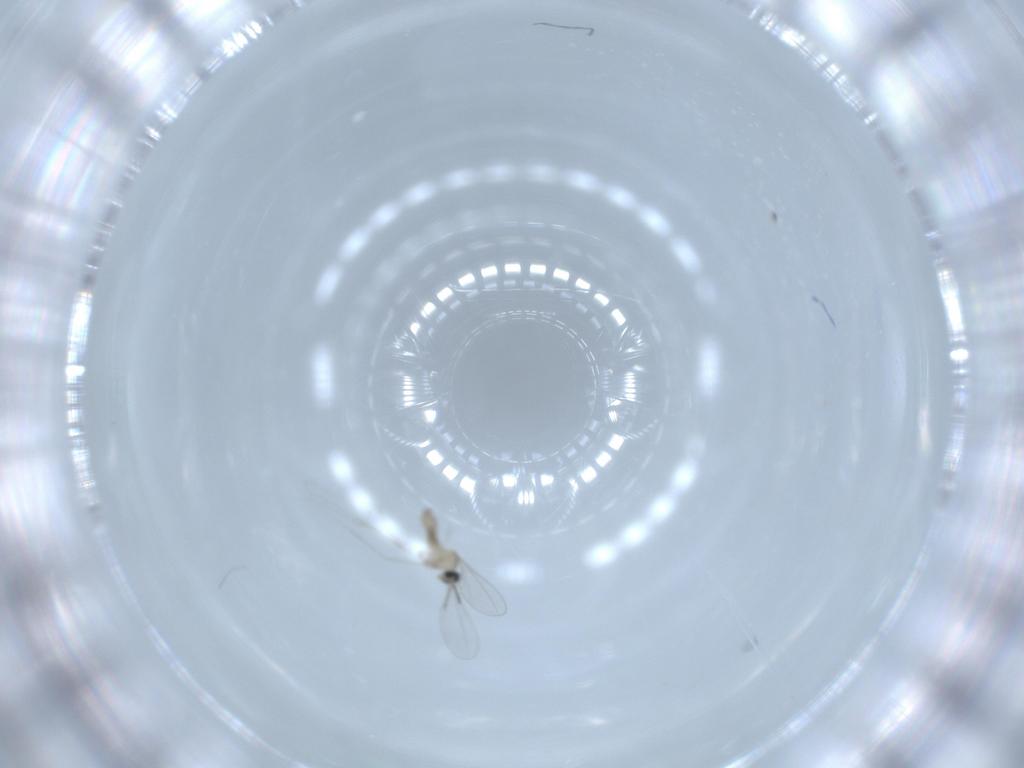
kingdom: Animalia
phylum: Arthropoda
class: Insecta
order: Diptera
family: Cecidomyiidae
